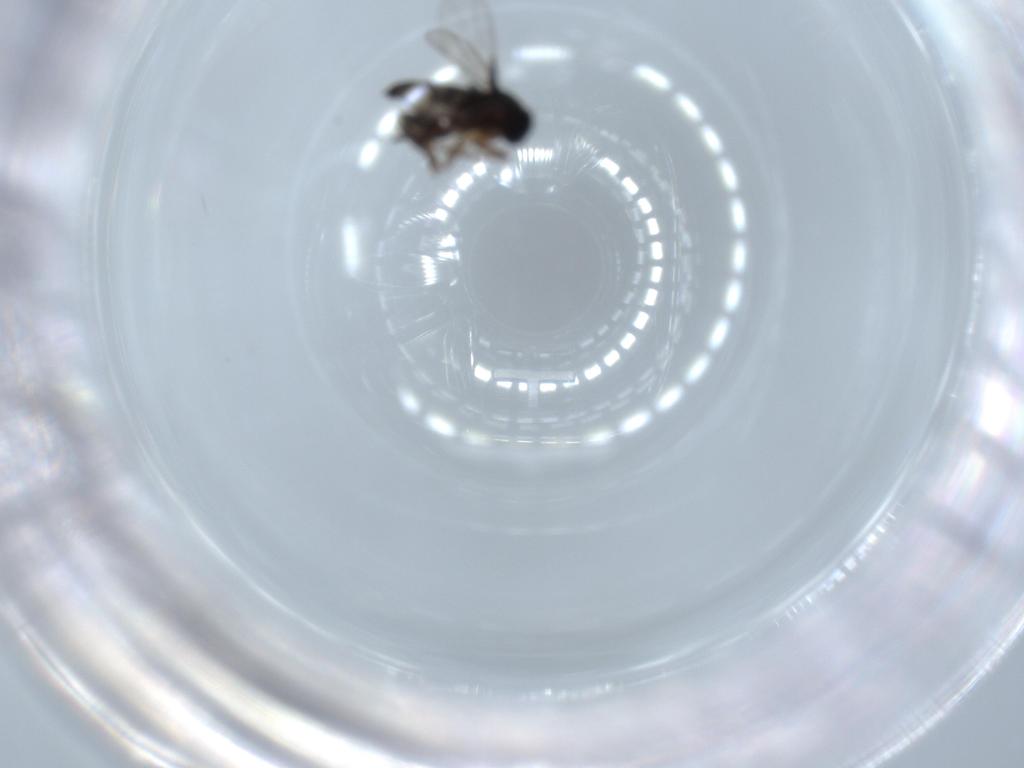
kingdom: Animalia
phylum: Arthropoda
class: Insecta
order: Diptera
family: Phoridae
